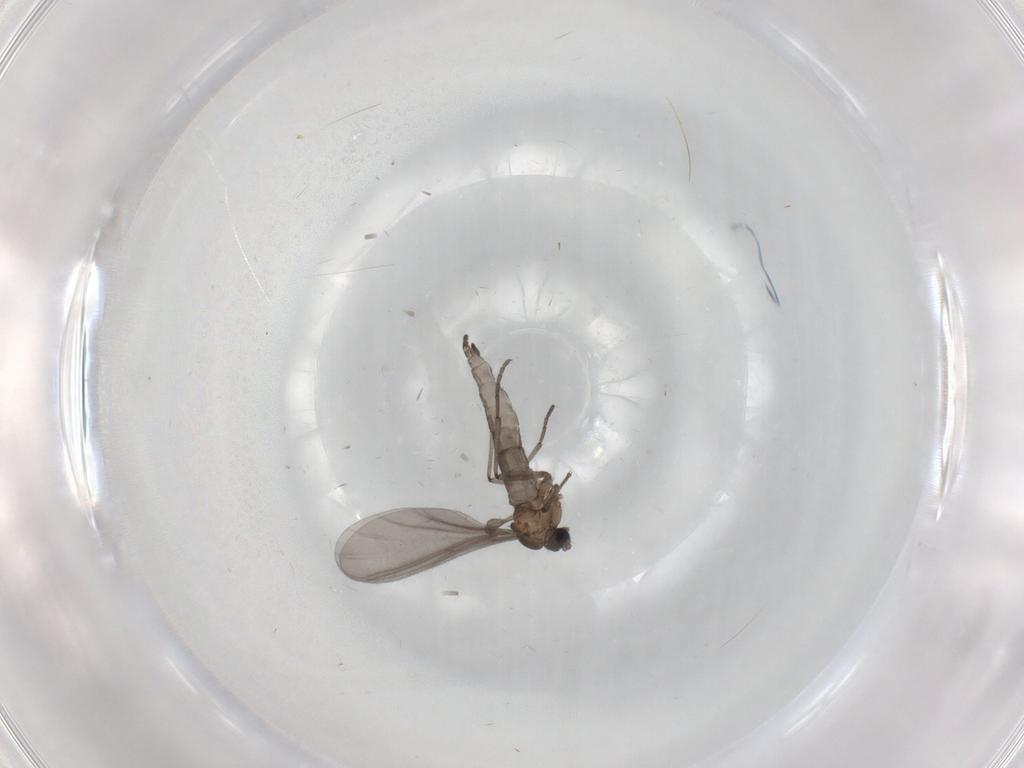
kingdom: Animalia
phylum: Arthropoda
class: Insecta
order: Diptera
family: Sciaridae
